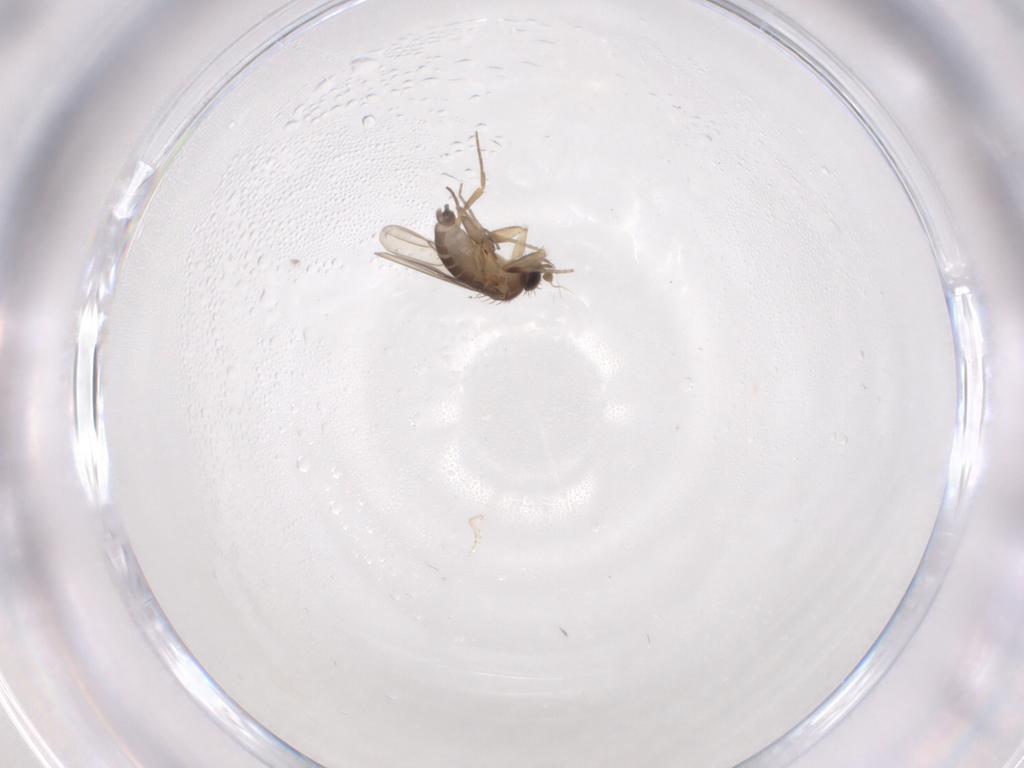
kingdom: Animalia
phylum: Arthropoda
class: Insecta
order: Diptera
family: Phoridae
